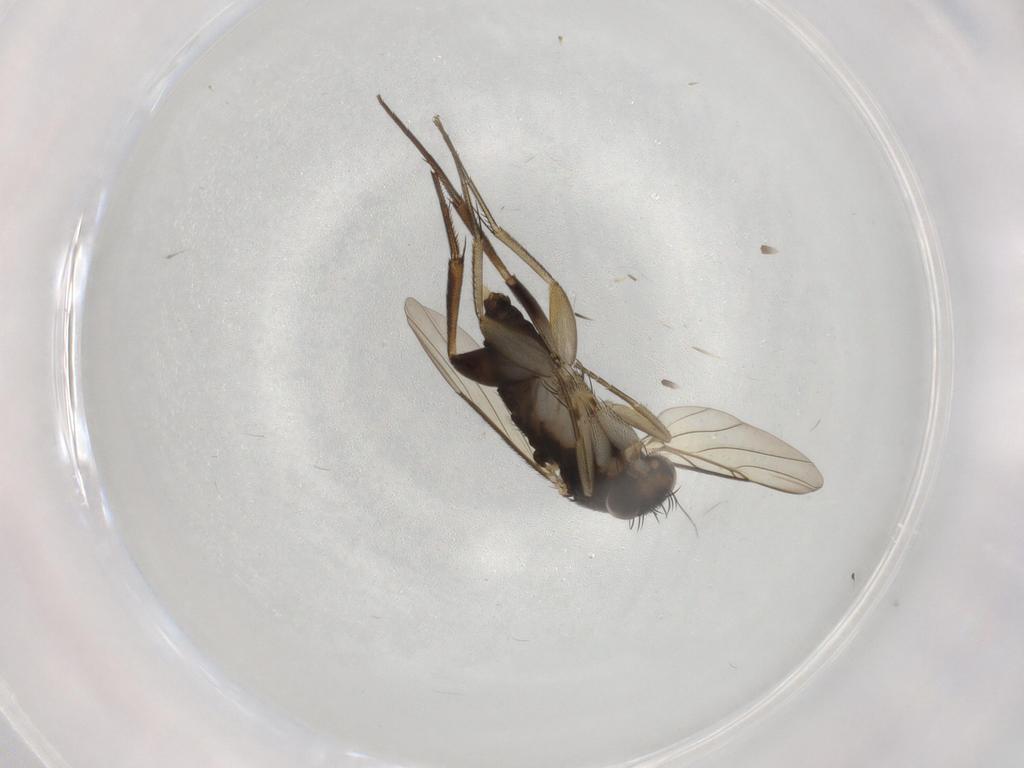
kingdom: Animalia
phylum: Arthropoda
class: Insecta
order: Diptera
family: Phoridae
